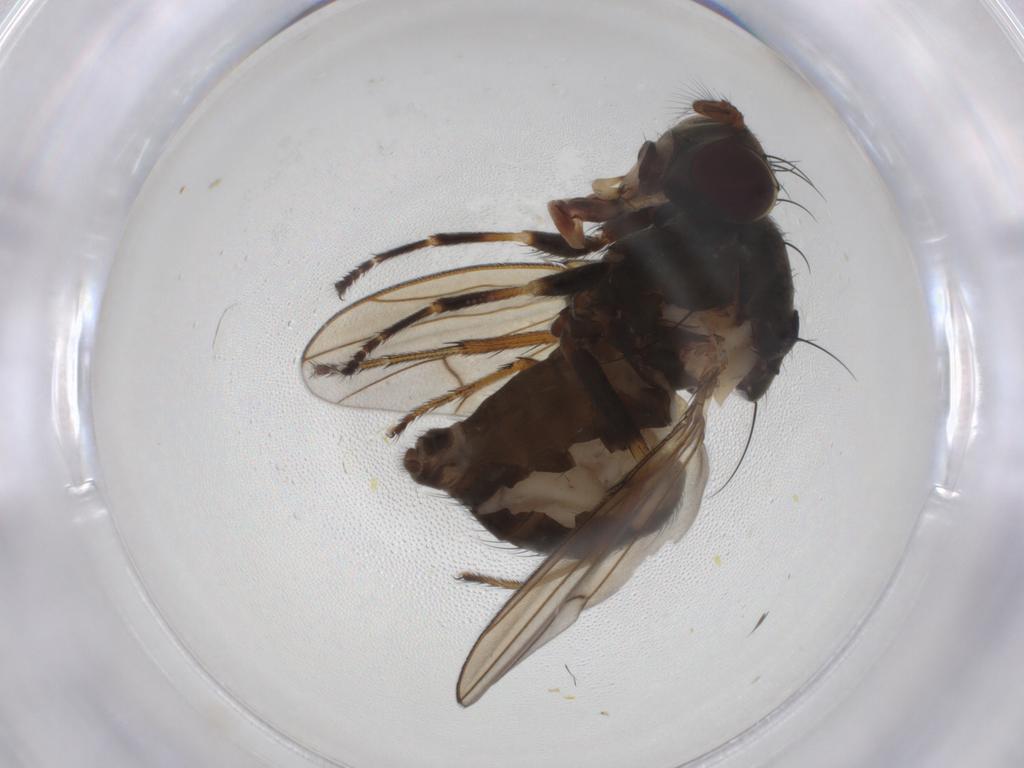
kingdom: Animalia
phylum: Arthropoda
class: Insecta
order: Diptera
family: Ephydridae
